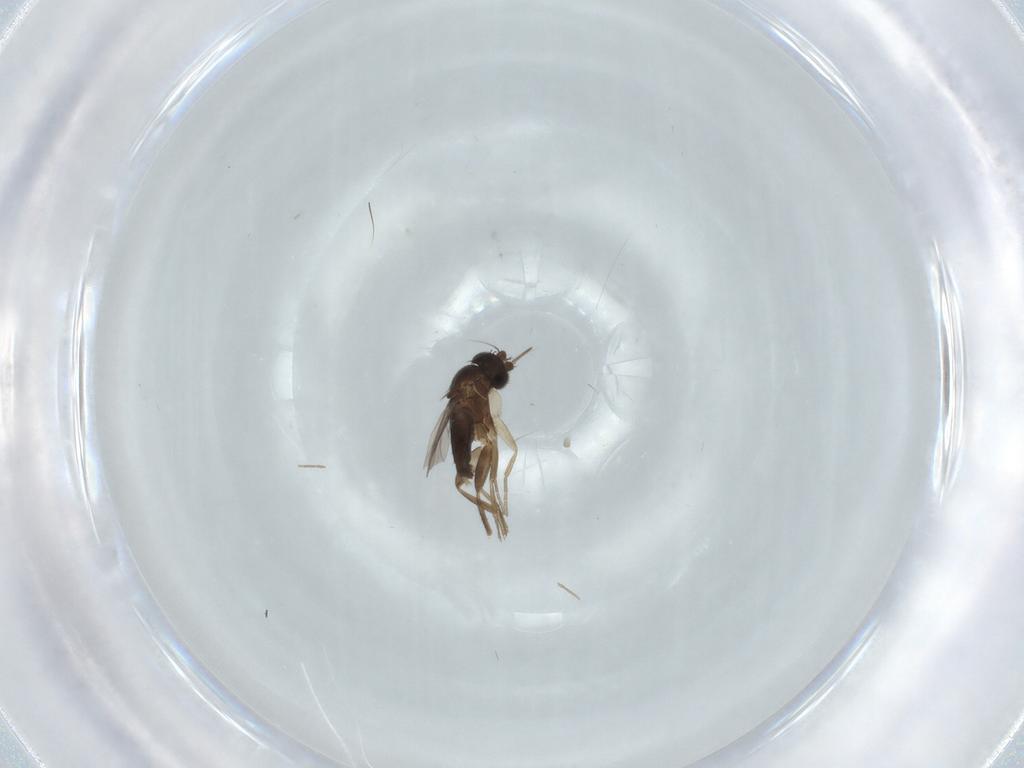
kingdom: Animalia
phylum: Arthropoda
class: Insecta
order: Diptera
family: Phoridae
